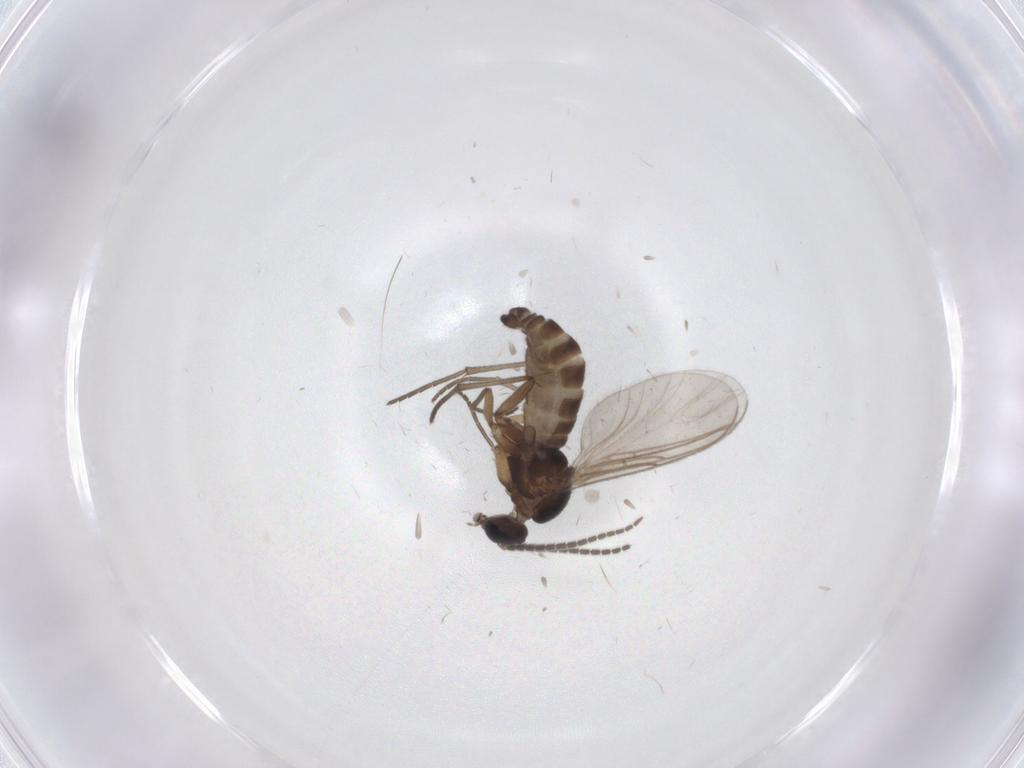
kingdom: Animalia
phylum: Arthropoda
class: Insecta
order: Diptera
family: Sciaridae
